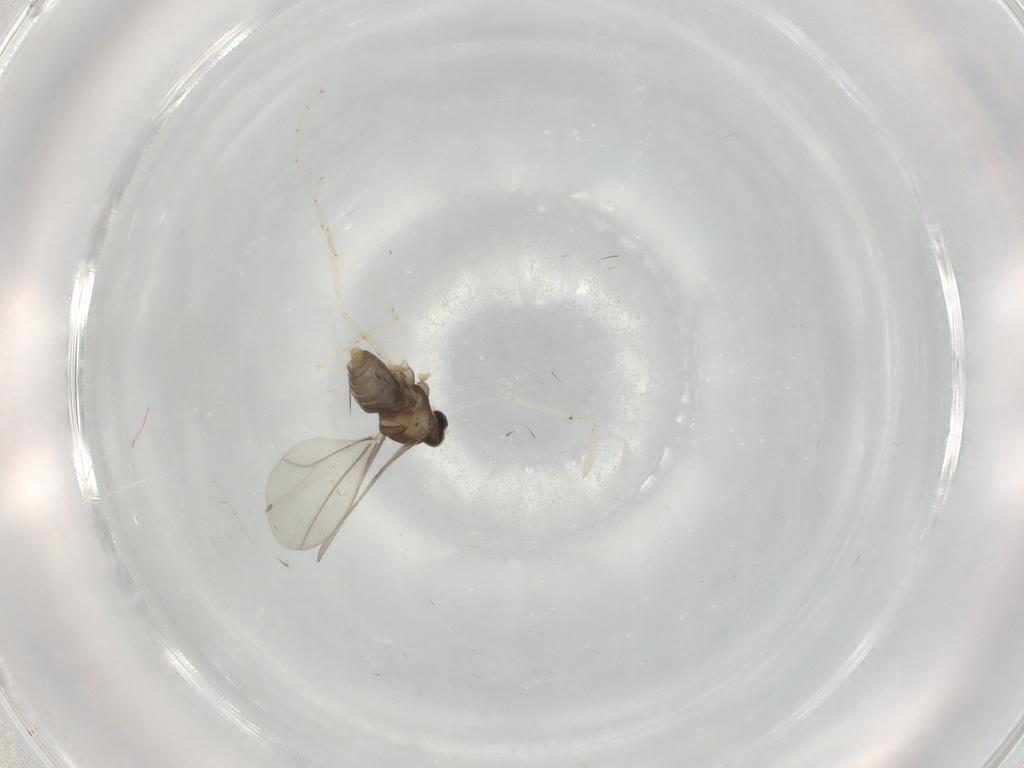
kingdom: Animalia
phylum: Arthropoda
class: Insecta
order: Diptera
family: Cecidomyiidae
